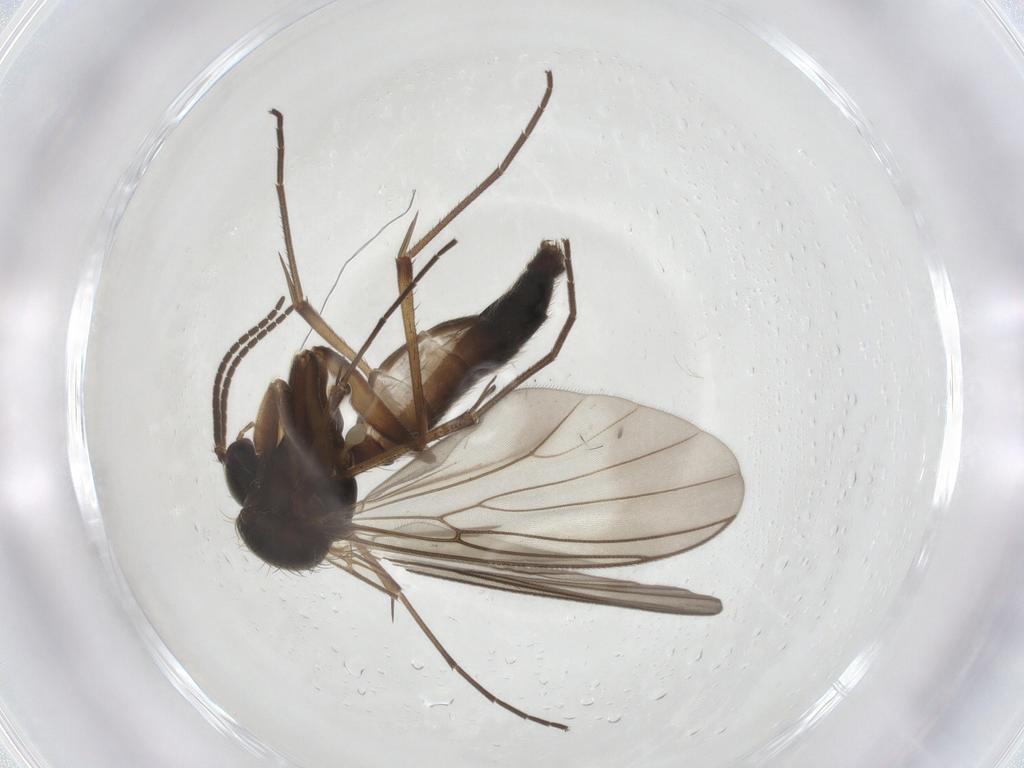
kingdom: Animalia
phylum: Arthropoda
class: Insecta
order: Diptera
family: Mycetophilidae
